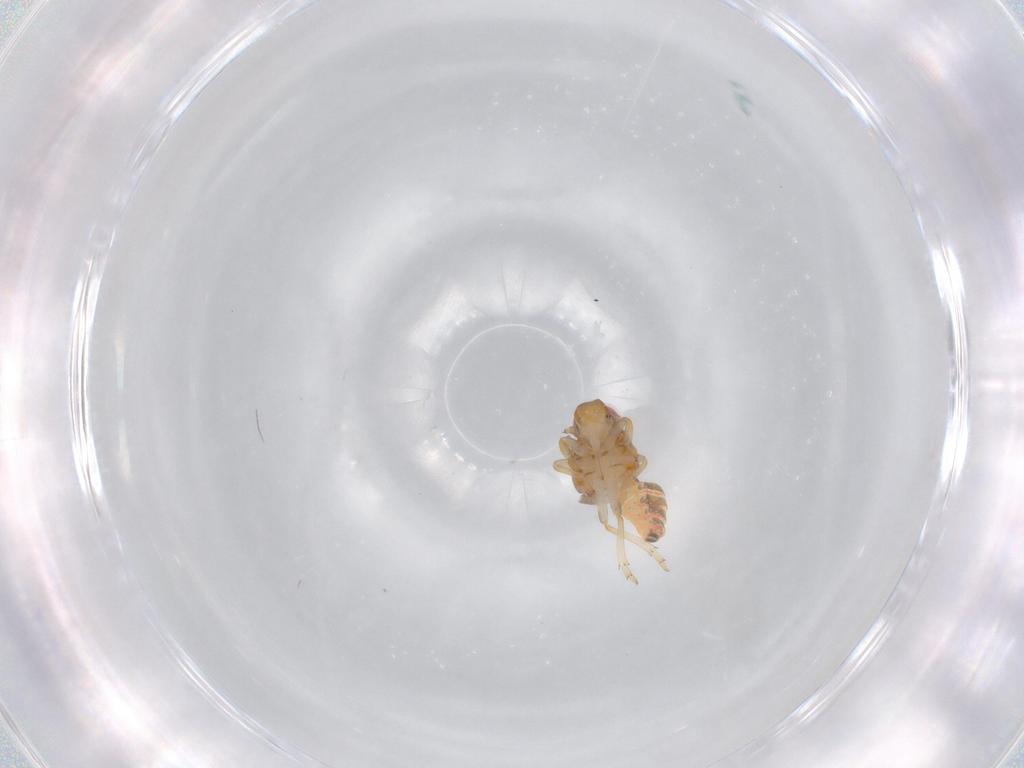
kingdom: Animalia
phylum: Arthropoda
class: Insecta
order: Hemiptera
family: Issidae
